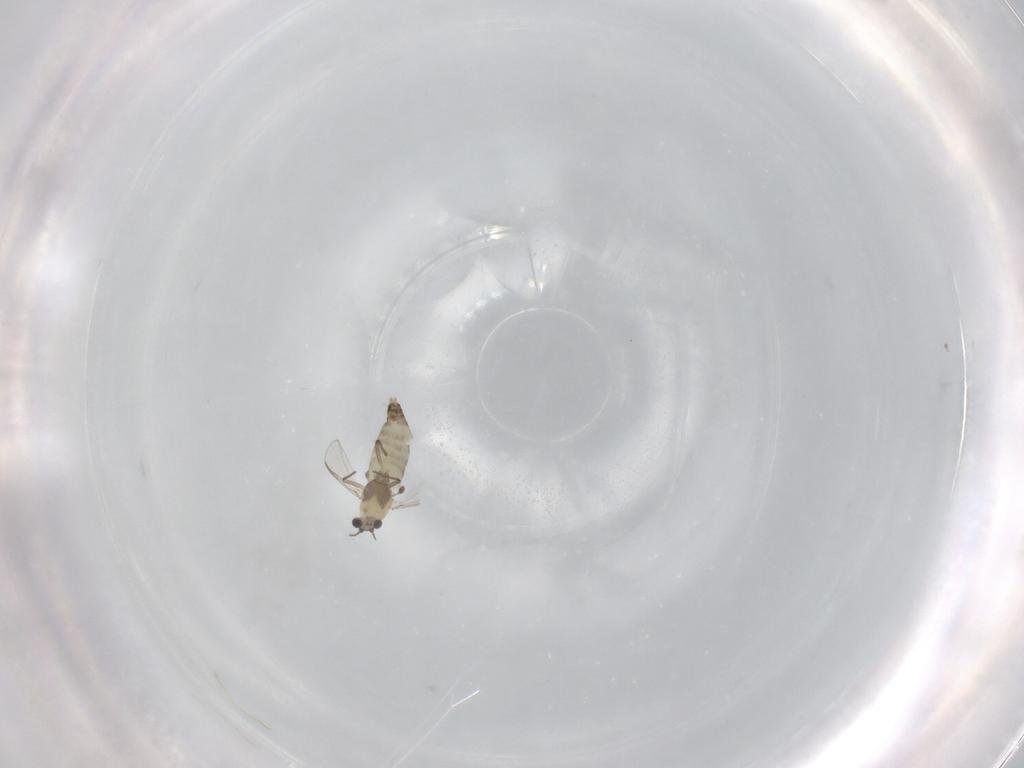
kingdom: Animalia
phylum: Arthropoda
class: Insecta
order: Diptera
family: Chironomidae
